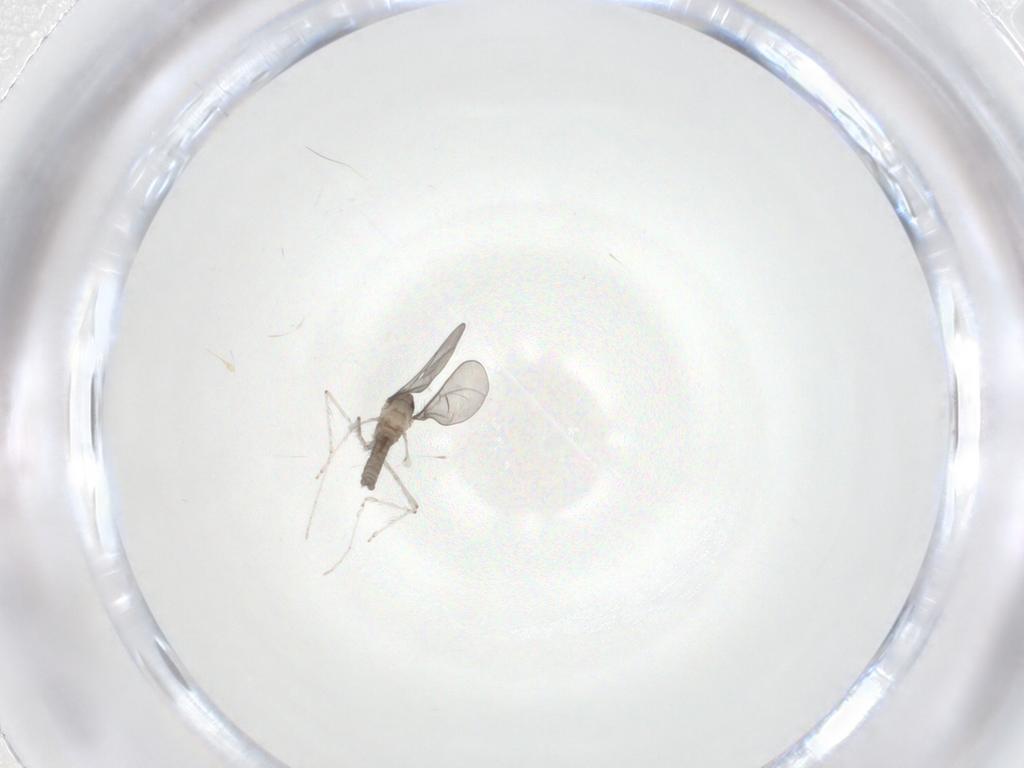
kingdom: Animalia
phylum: Arthropoda
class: Insecta
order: Diptera
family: Cecidomyiidae
